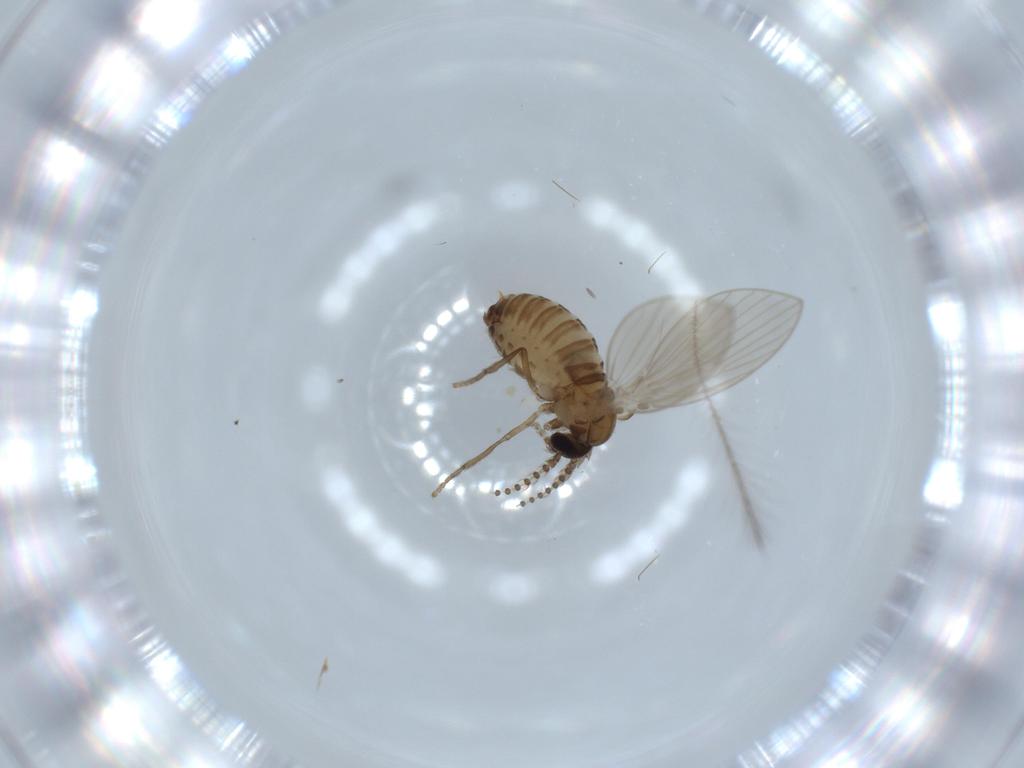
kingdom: Animalia
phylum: Arthropoda
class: Insecta
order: Diptera
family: Psychodidae
